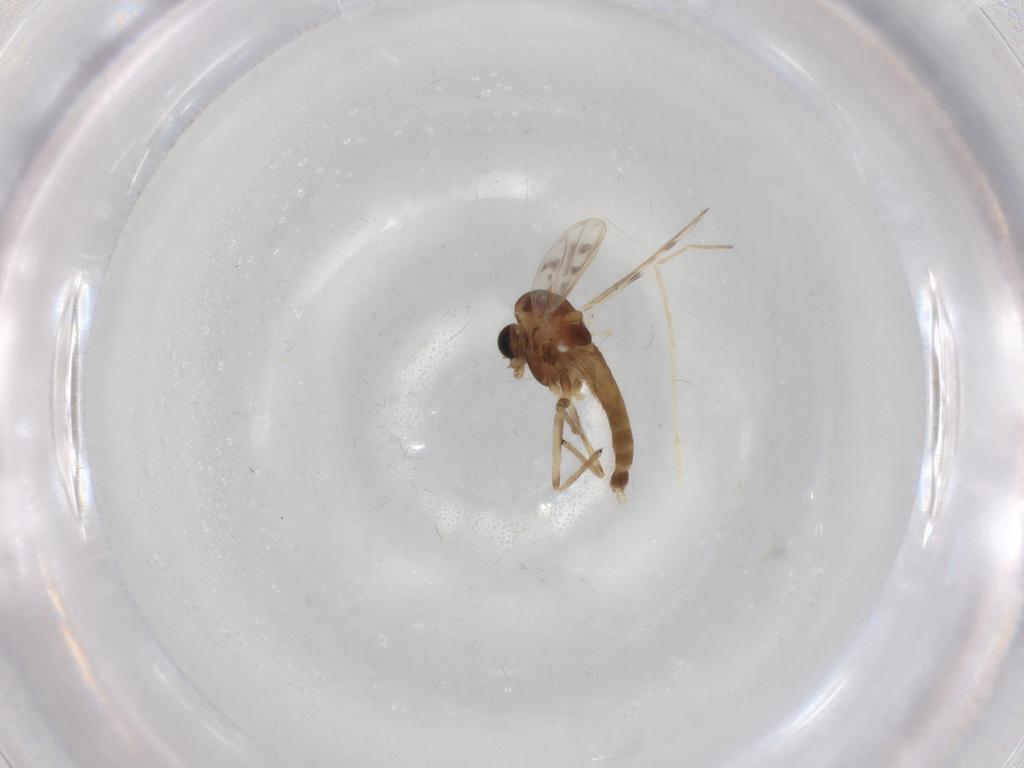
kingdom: Animalia
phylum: Arthropoda
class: Insecta
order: Diptera
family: Chironomidae
